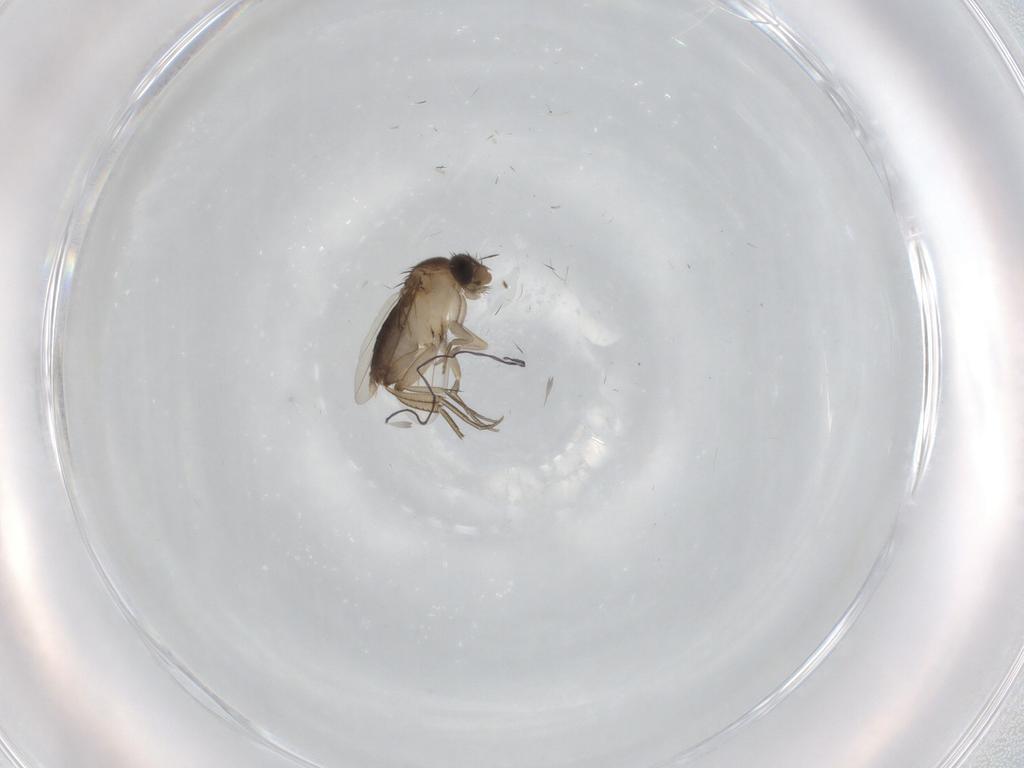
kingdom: Animalia
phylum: Arthropoda
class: Insecta
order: Diptera
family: Phoridae
